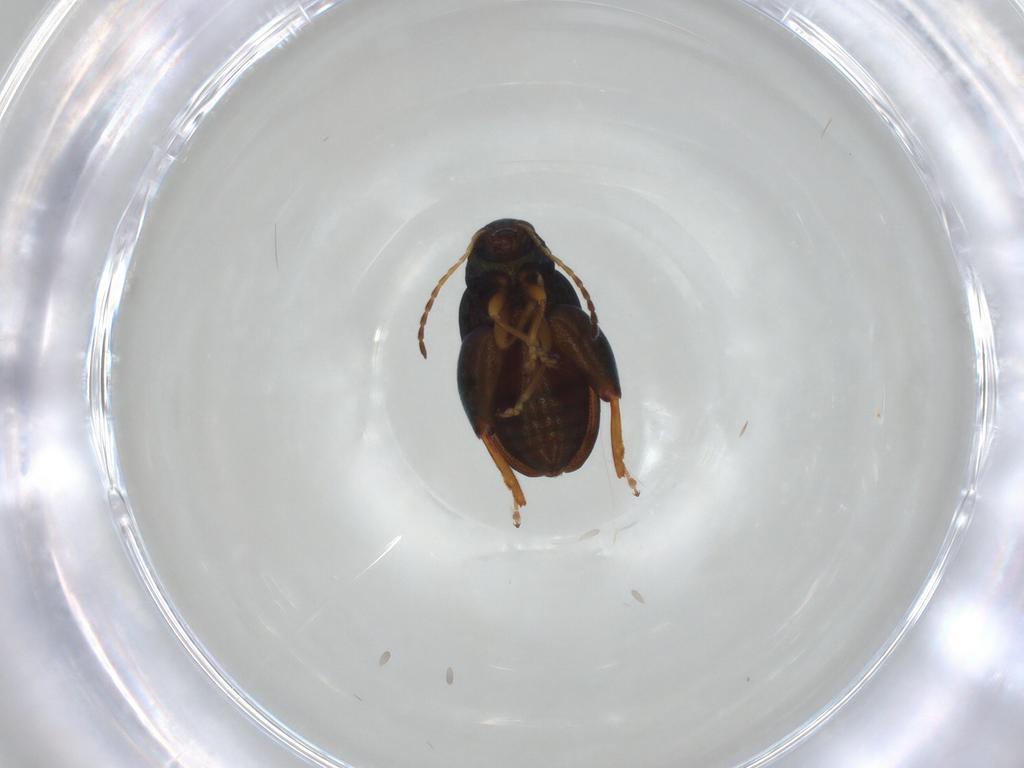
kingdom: Animalia
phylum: Arthropoda
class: Insecta
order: Coleoptera
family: Chrysomelidae
